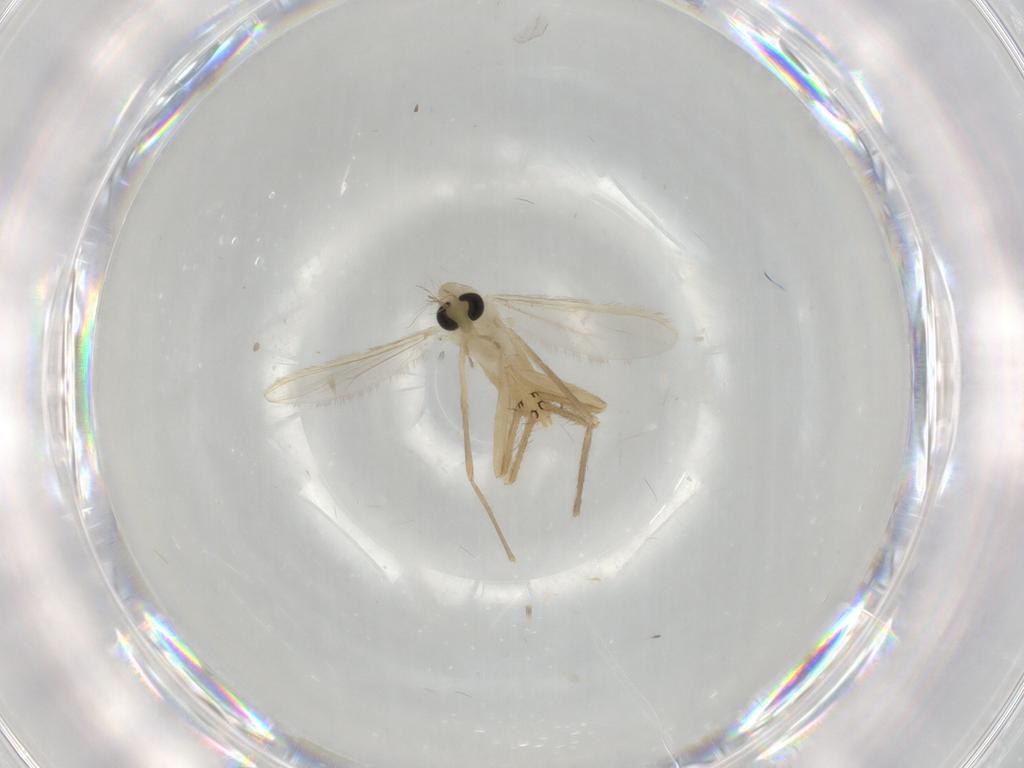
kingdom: Animalia
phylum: Arthropoda
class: Insecta
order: Diptera
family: Chironomidae
